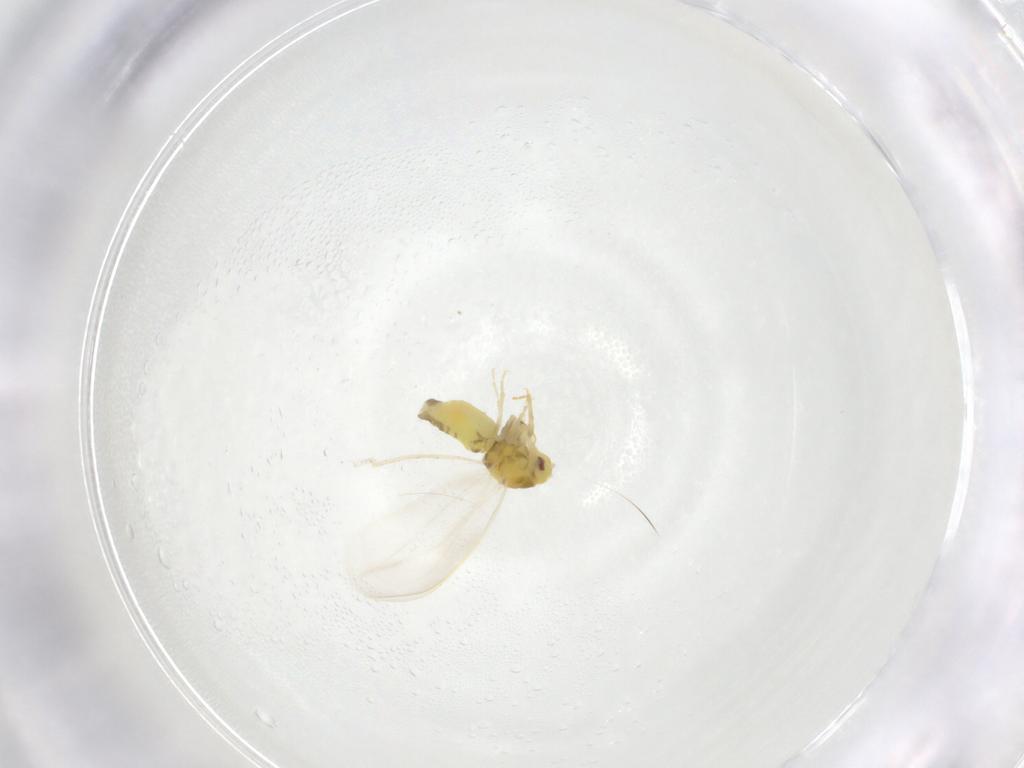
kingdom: Animalia
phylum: Arthropoda
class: Insecta
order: Hemiptera
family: Aleyrodidae
